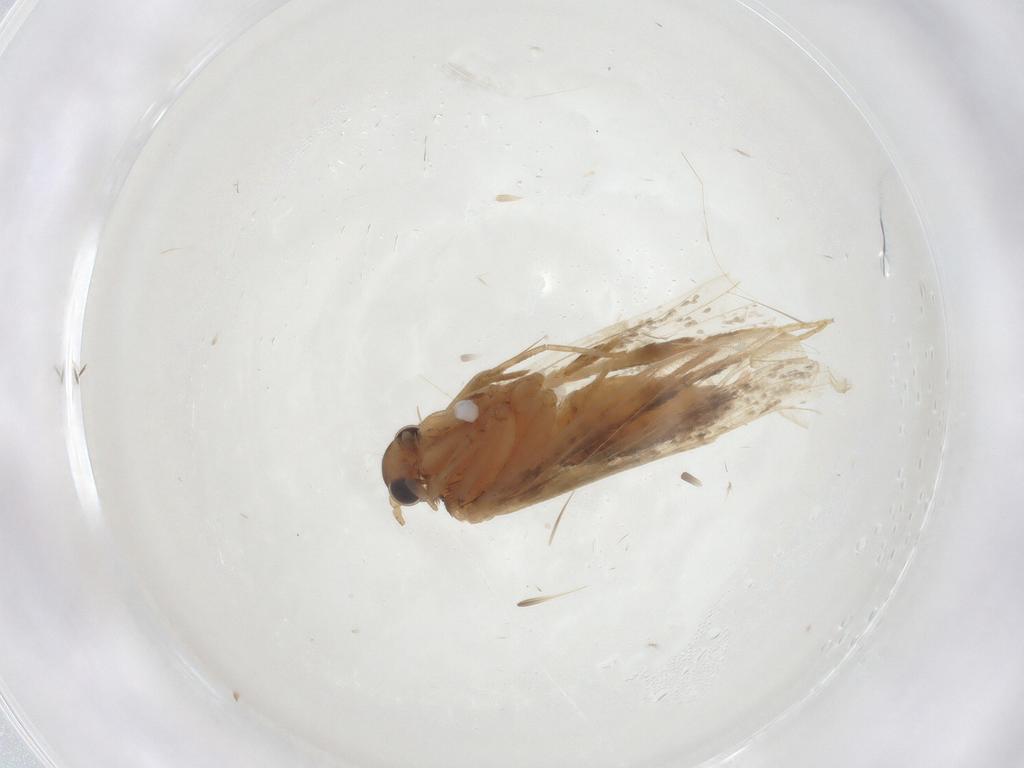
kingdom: Animalia
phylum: Arthropoda
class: Insecta
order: Lepidoptera
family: Psychidae
